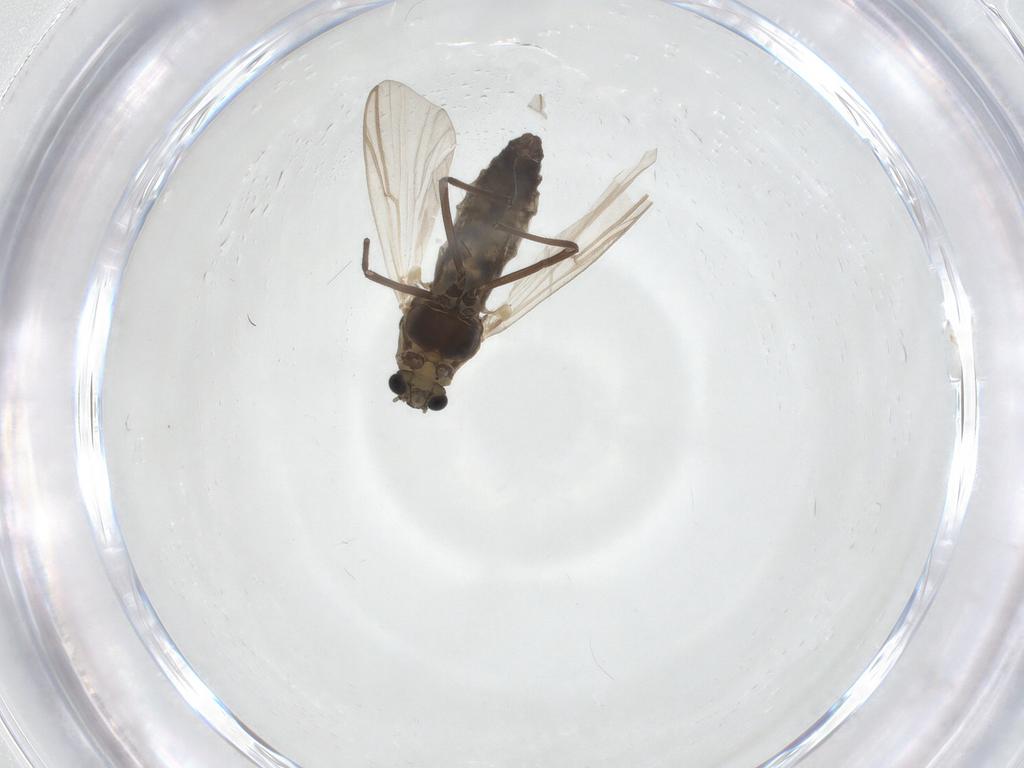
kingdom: Animalia
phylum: Arthropoda
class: Insecta
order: Diptera
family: Chironomidae
